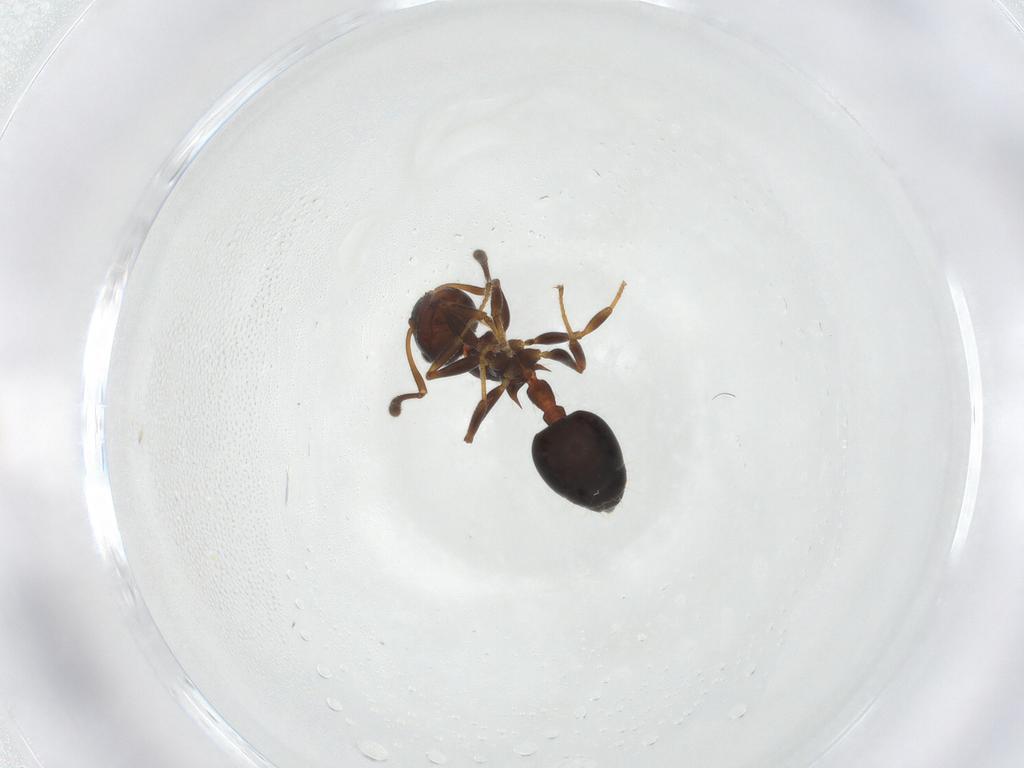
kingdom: Animalia
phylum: Arthropoda
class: Insecta
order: Hymenoptera
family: Formicidae
